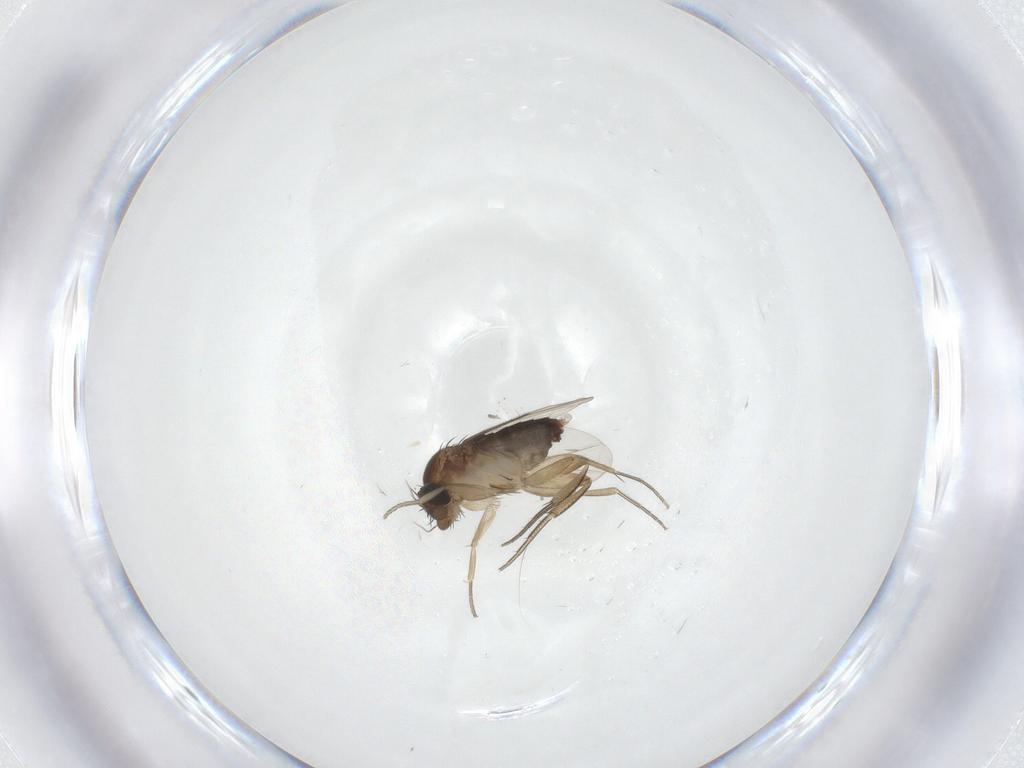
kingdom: Animalia
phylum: Arthropoda
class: Insecta
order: Diptera
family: Phoridae
